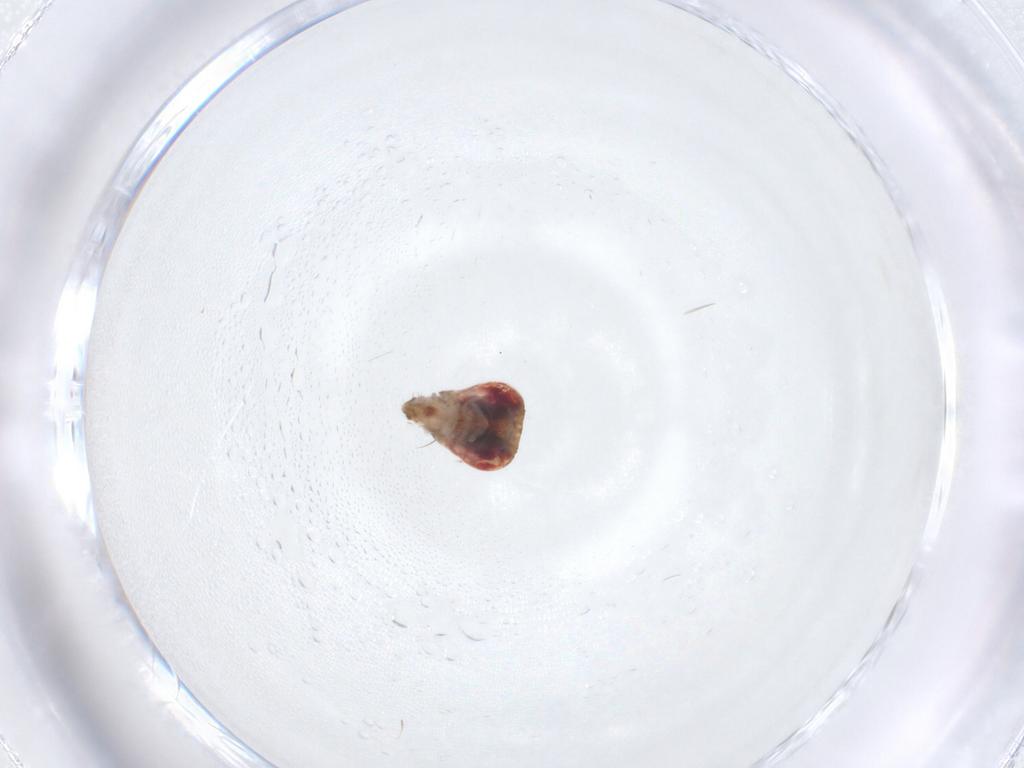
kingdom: Animalia
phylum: Arthropoda
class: Insecta
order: Diptera
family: Cecidomyiidae
